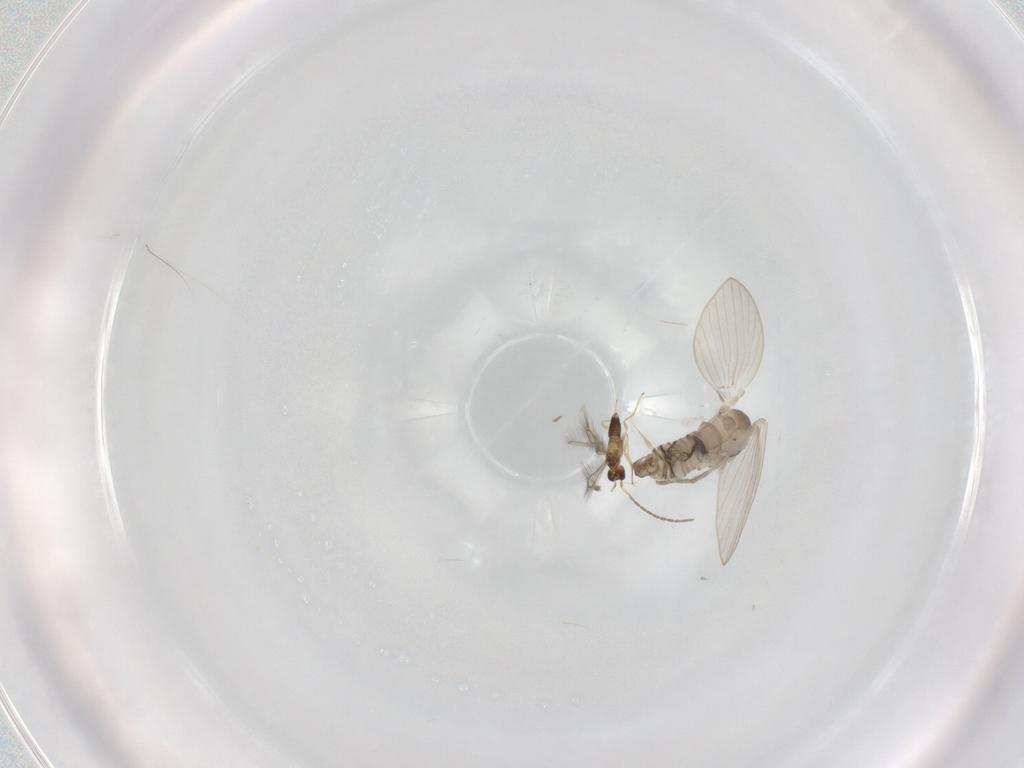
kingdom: Animalia
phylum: Arthropoda
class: Insecta
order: Diptera
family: Psychodidae
